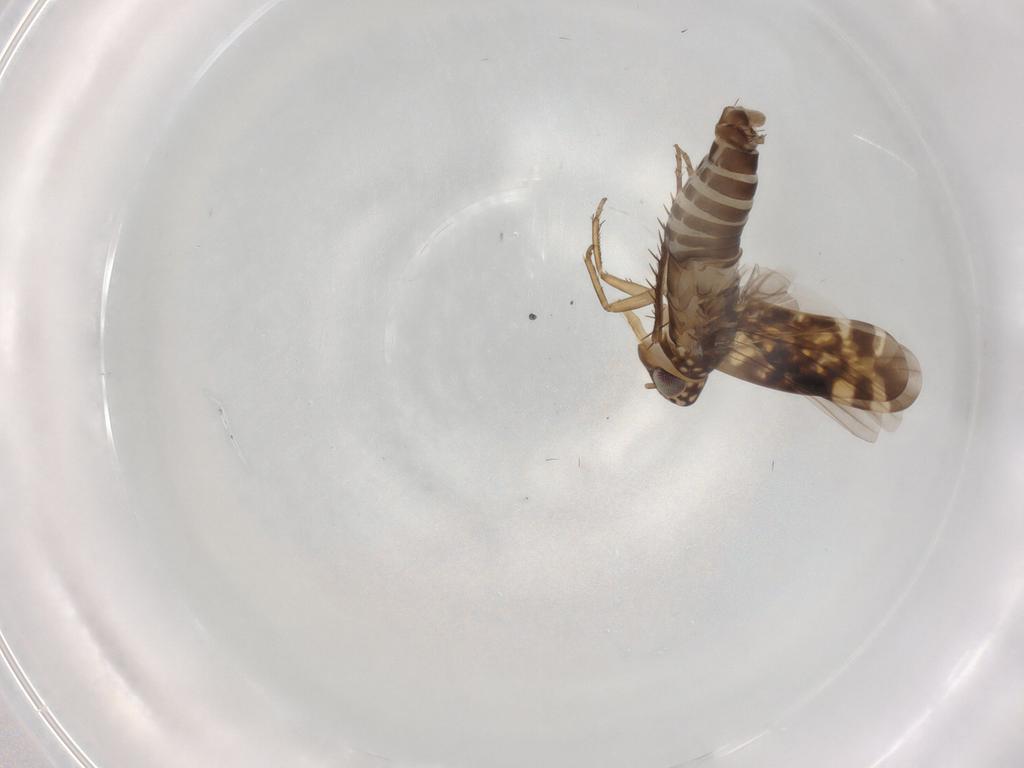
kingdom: Animalia
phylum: Arthropoda
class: Insecta
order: Hemiptera
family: Cicadellidae
